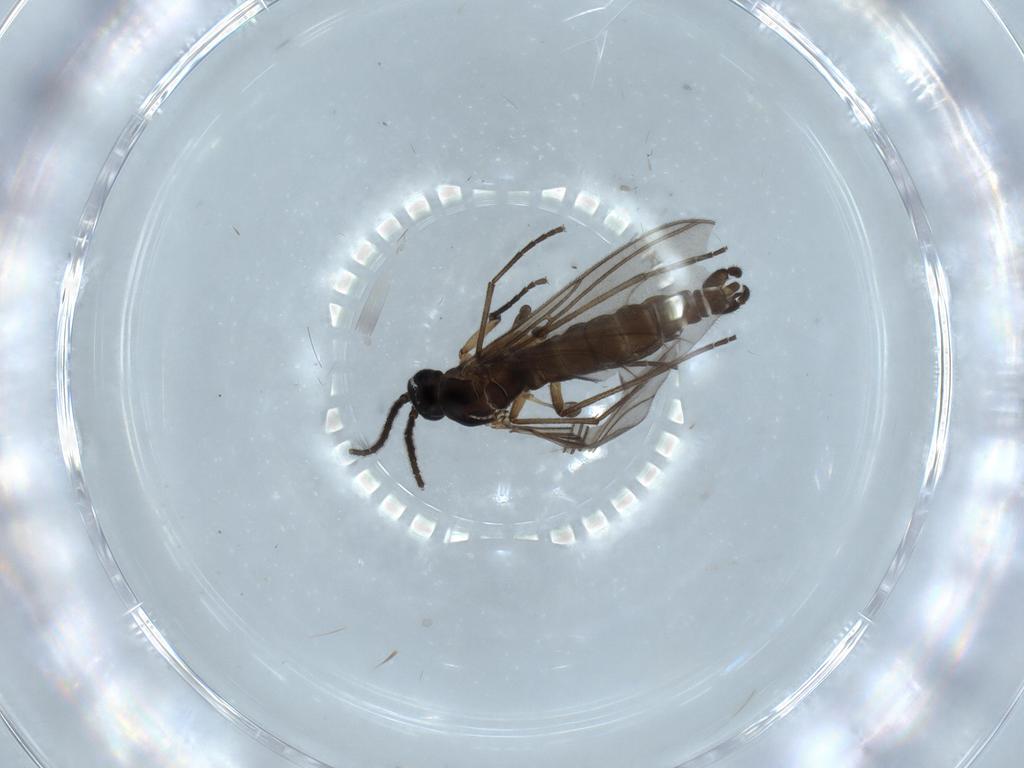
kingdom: Animalia
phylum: Arthropoda
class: Insecta
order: Diptera
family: Sciaridae
